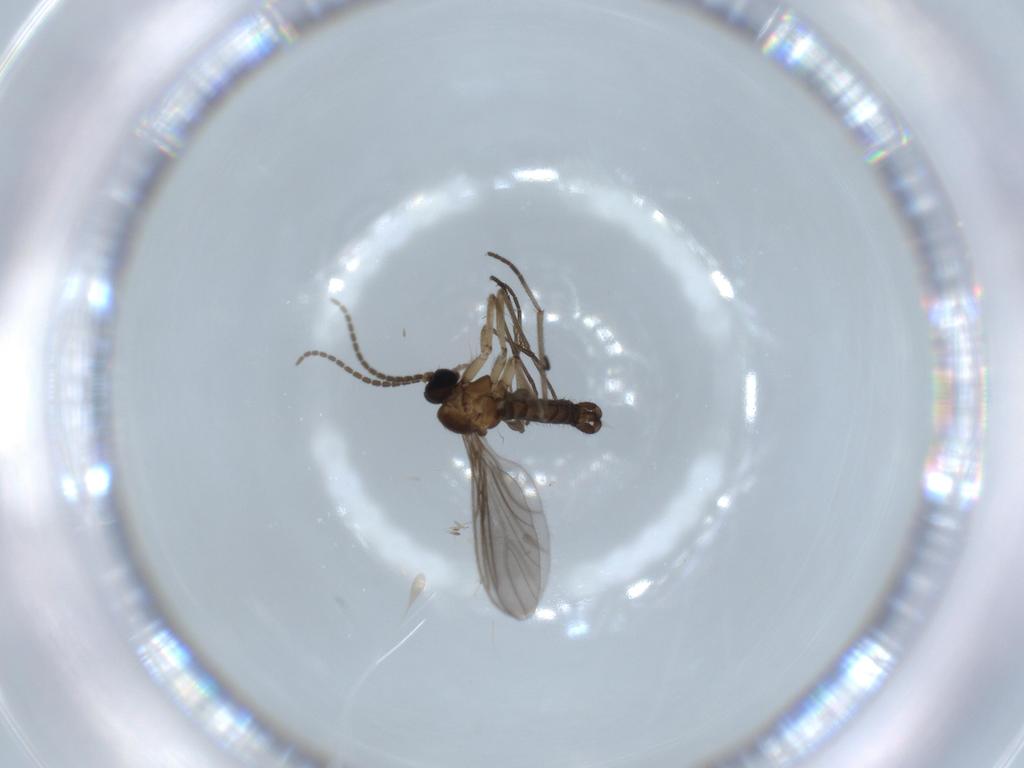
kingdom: Animalia
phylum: Arthropoda
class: Insecta
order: Diptera
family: Sciaridae
